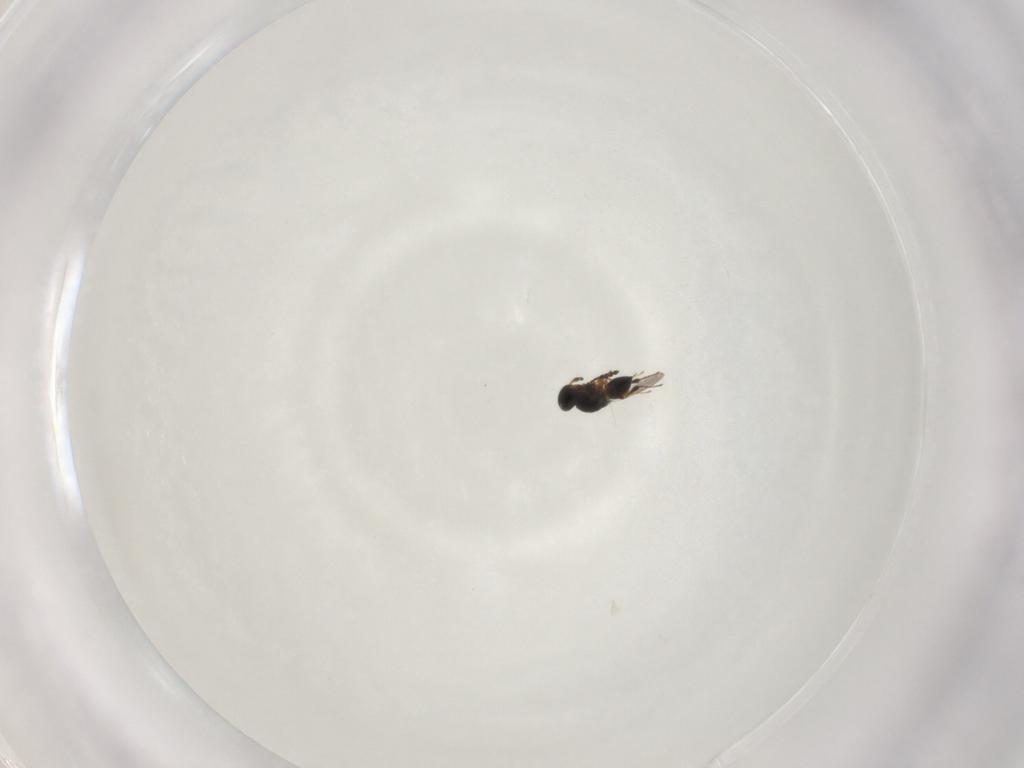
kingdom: Animalia
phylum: Arthropoda
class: Insecta
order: Hymenoptera
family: Platygastridae
